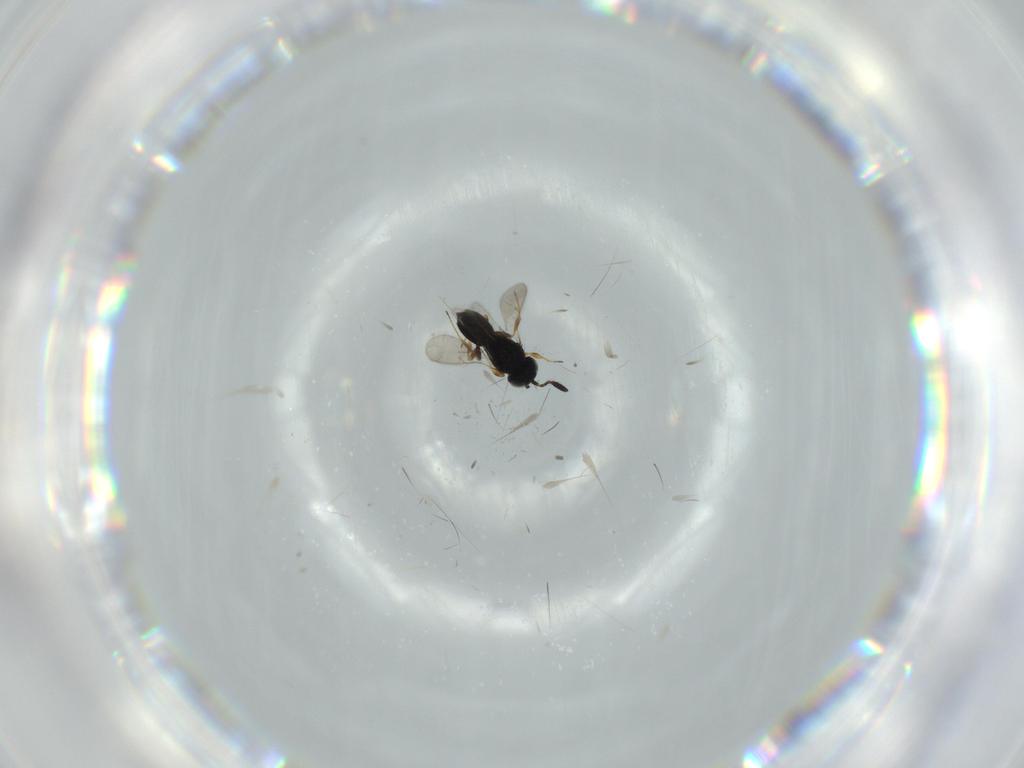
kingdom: Animalia
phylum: Arthropoda
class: Insecta
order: Hymenoptera
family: Scelionidae
